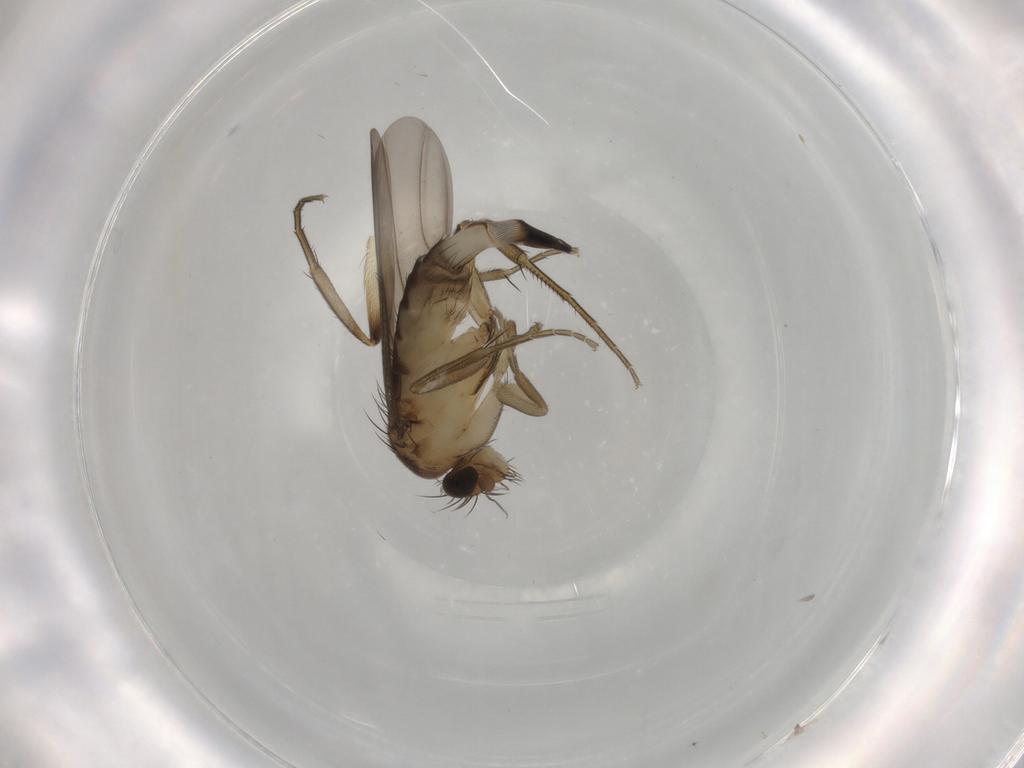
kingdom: Animalia
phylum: Arthropoda
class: Insecta
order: Diptera
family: Phoridae
